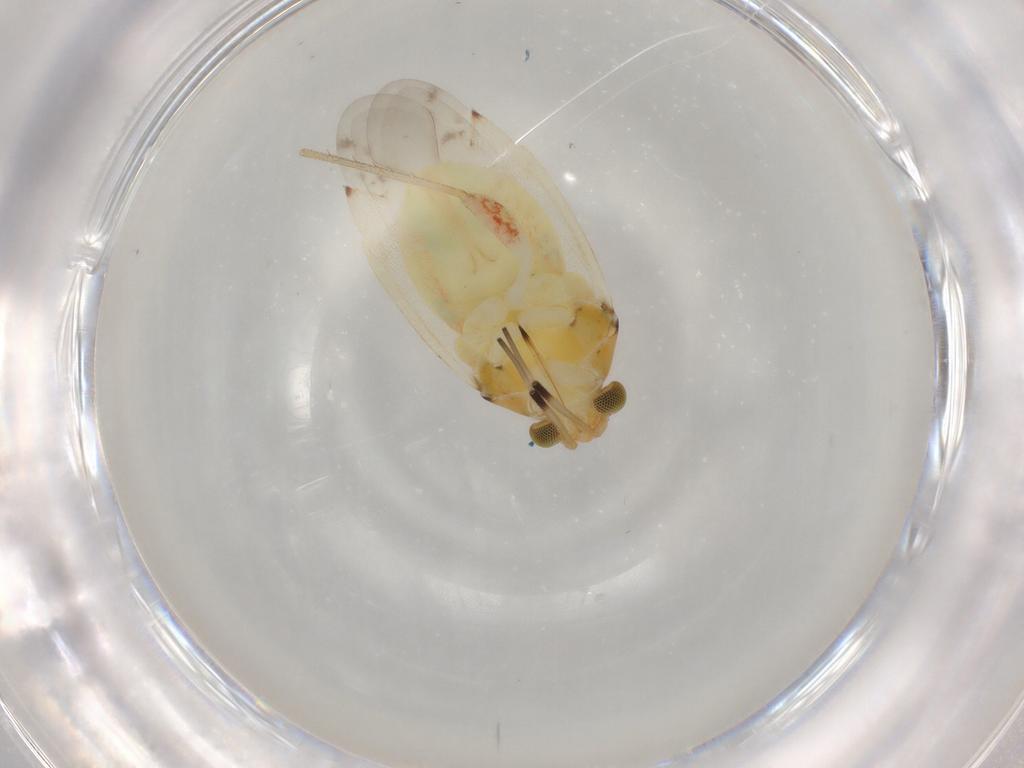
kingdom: Animalia
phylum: Arthropoda
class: Insecta
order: Hemiptera
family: Miridae
